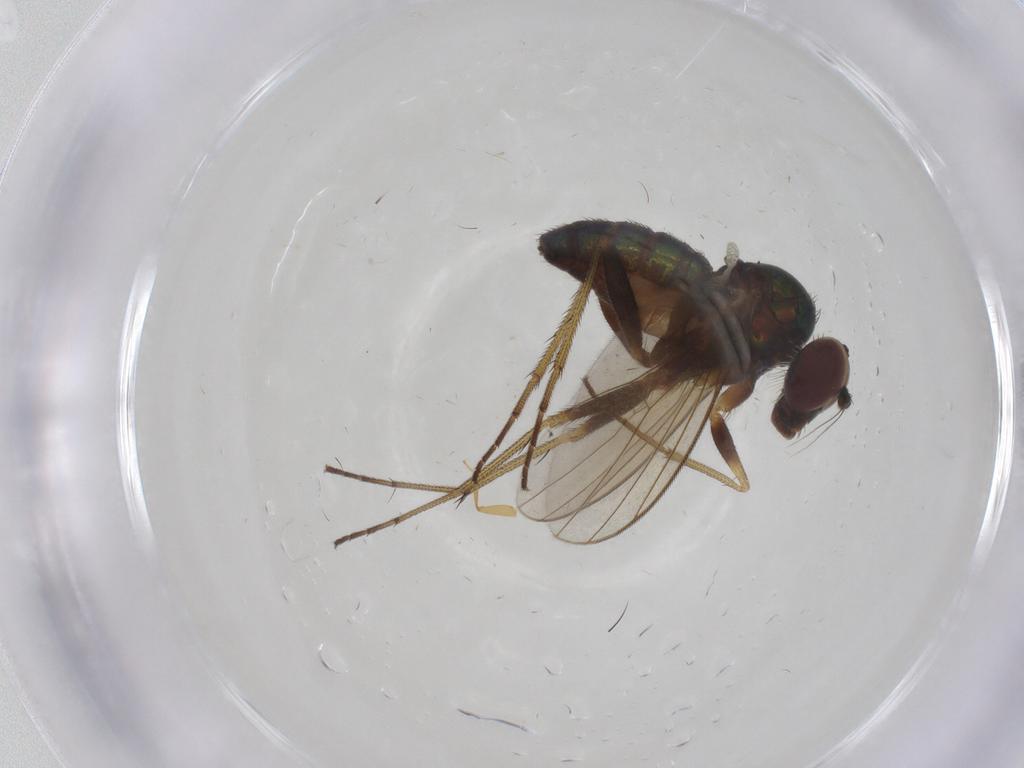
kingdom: Animalia
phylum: Arthropoda
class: Insecta
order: Diptera
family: Dolichopodidae
